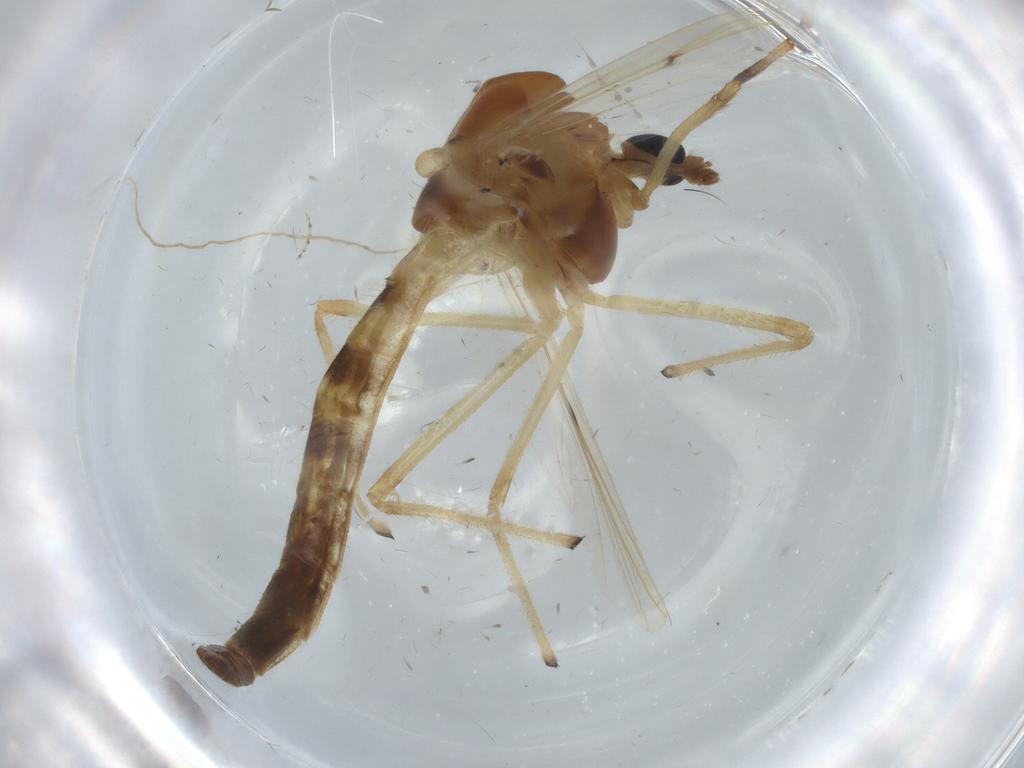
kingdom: Animalia
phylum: Arthropoda
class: Insecta
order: Diptera
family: Chironomidae
